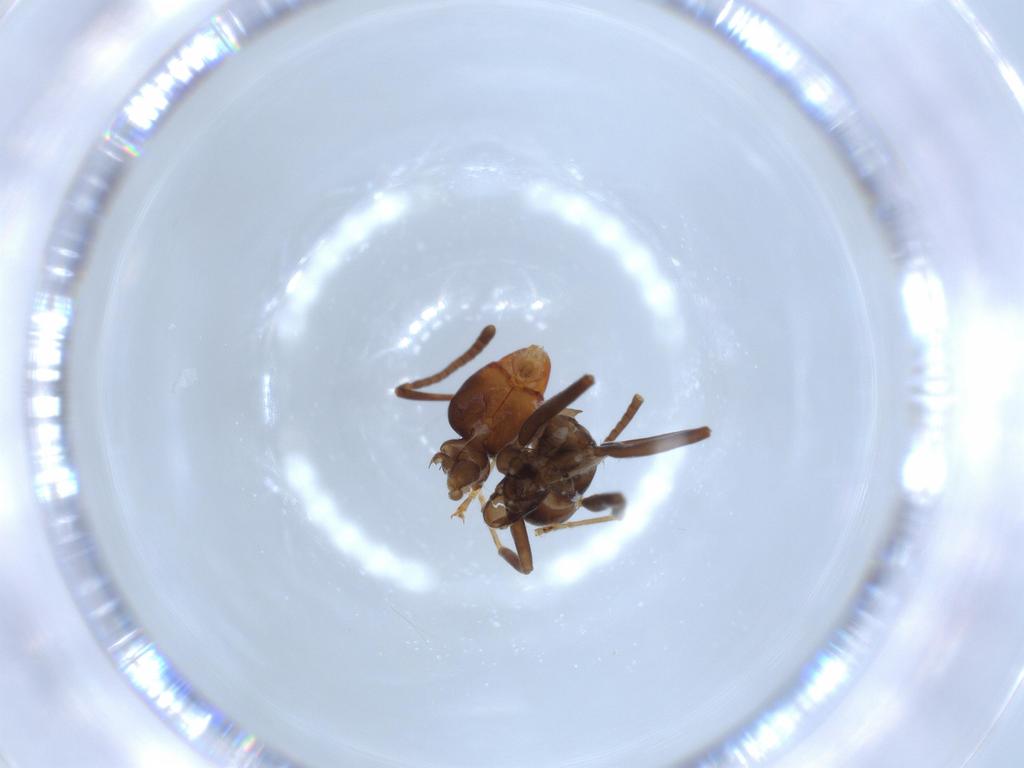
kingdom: Animalia
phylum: Arthropoda
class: Insecta
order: Hymenoptera
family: Formicidae
